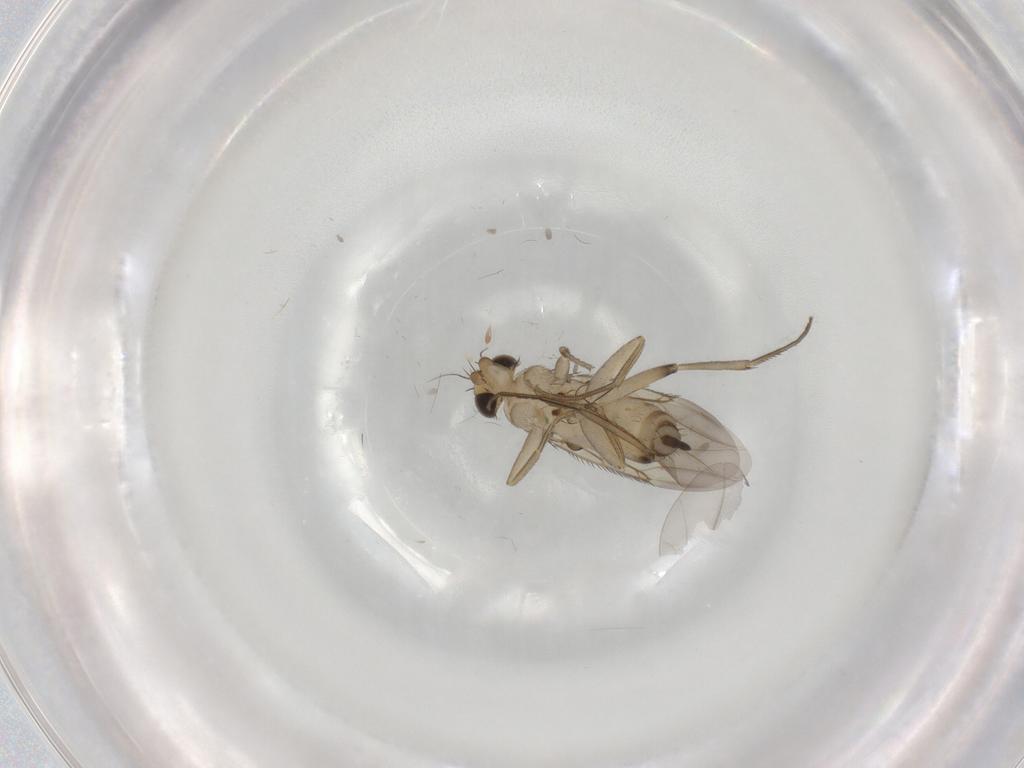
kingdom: Animalia
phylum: Arthropoda
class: Insecta
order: Diptera
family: Phoridae
